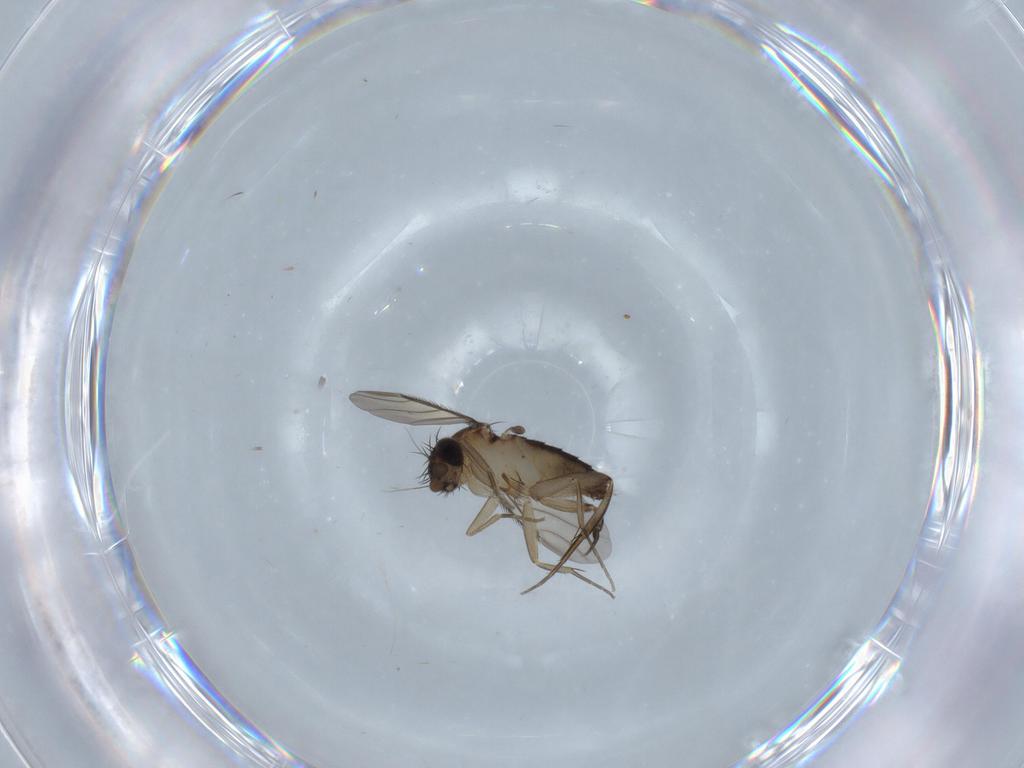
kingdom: Animalia
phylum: Arthropoda
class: Insecta
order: Diptera
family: Phoridae
